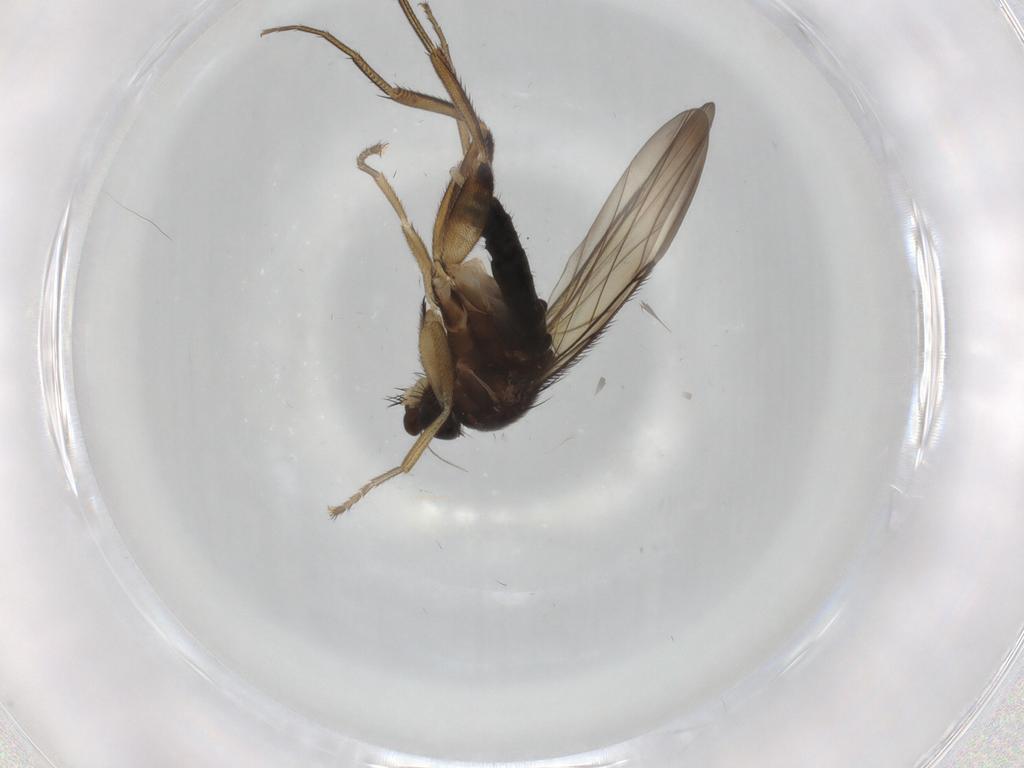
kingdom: Animalia
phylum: Arthropoda
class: Insecta
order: Diptera
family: Phoridae
